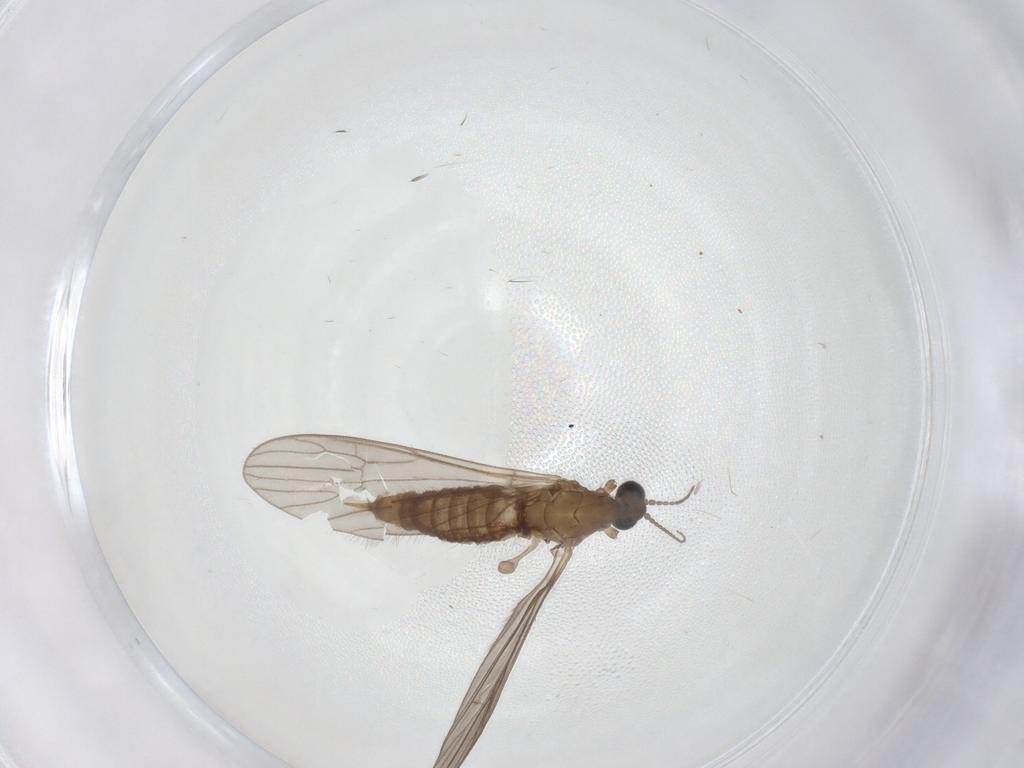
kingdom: Animalia
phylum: Arthropoda
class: Insecta
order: Diptera
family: Limoniidae
